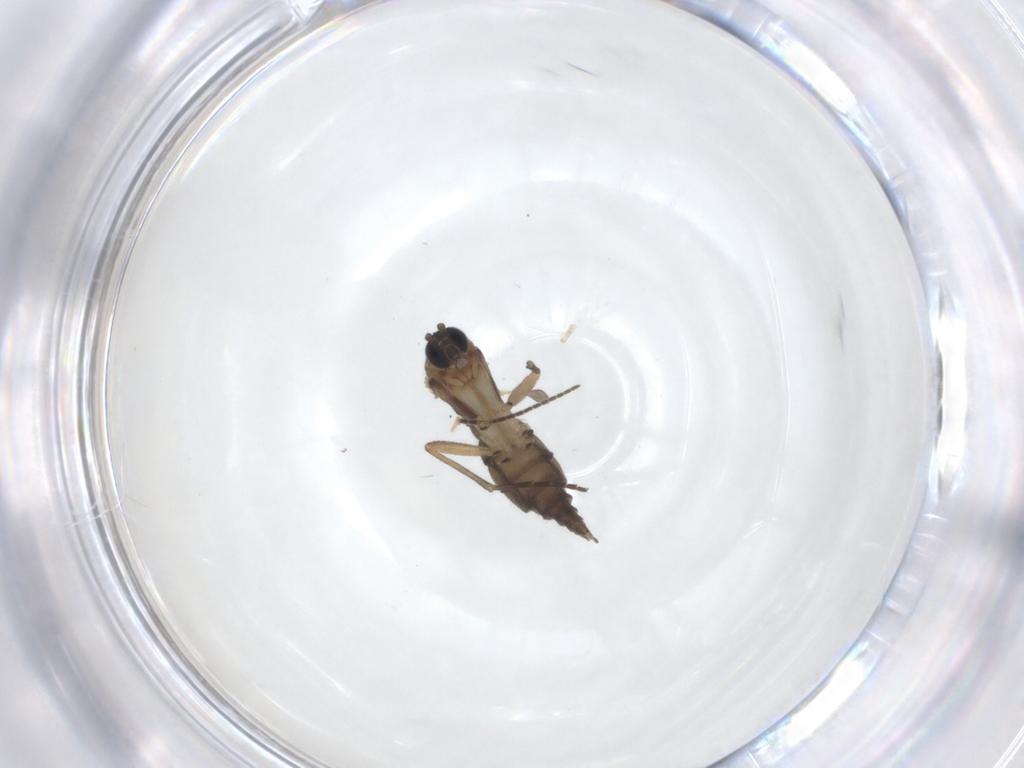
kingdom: Animalia
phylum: Arthropoda
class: Insecta
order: Diptera
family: Sciaridae
